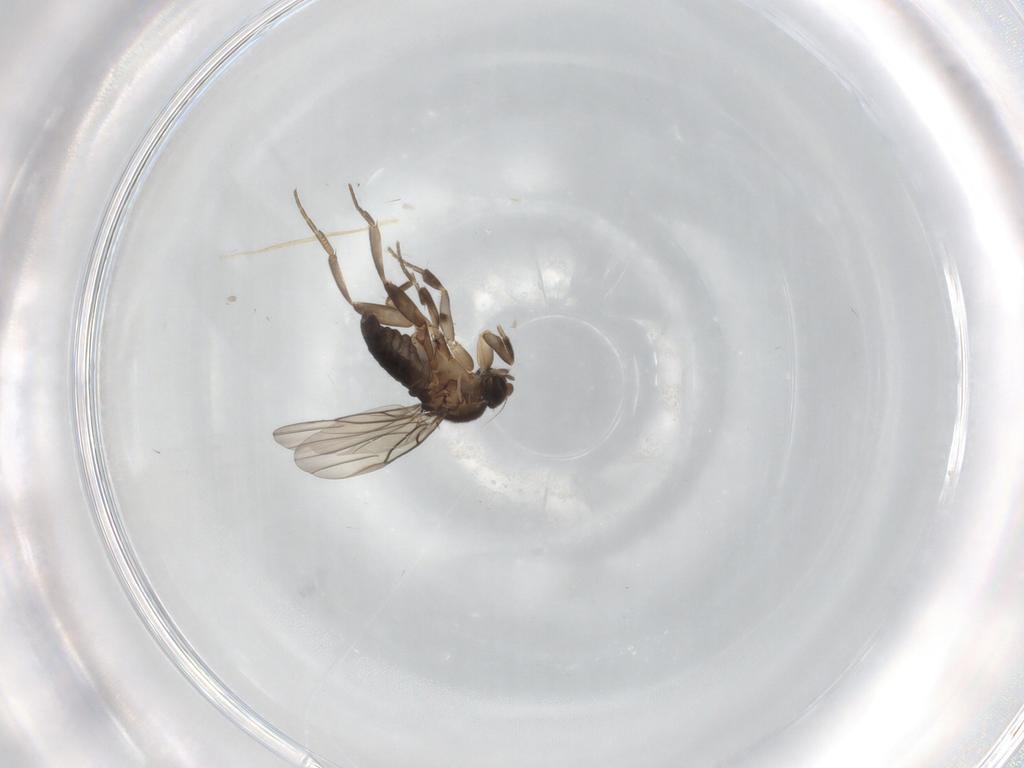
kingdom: Animalia
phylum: Arthropoda
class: Insecta
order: Diptera
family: Phoridae
